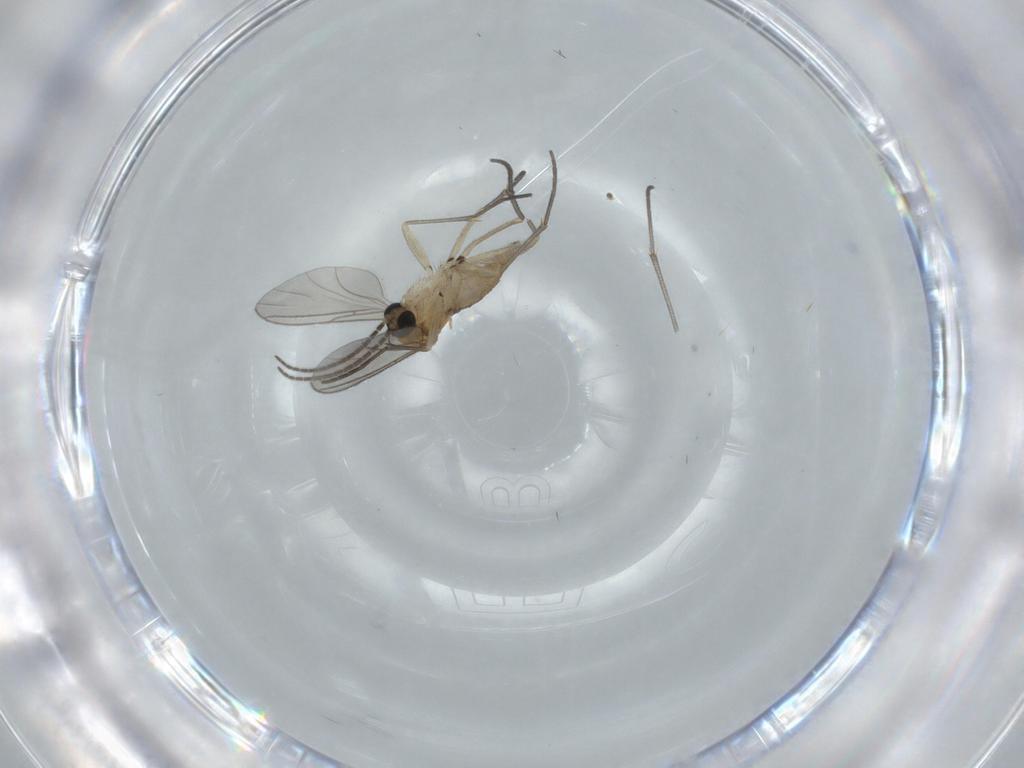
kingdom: Animalia
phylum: Arthropoda
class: Insecta
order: Diptera
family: Sciaridae
